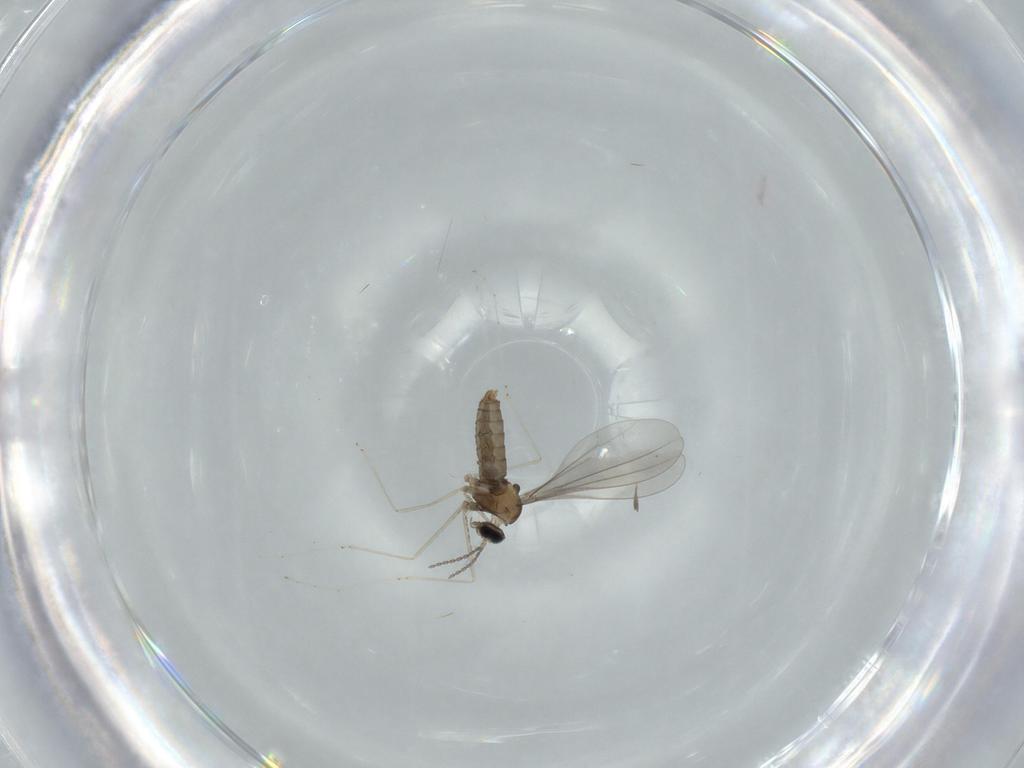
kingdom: Animalia
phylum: Arthropoda
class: Insecta
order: Diptera
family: Cecidomyiidae
